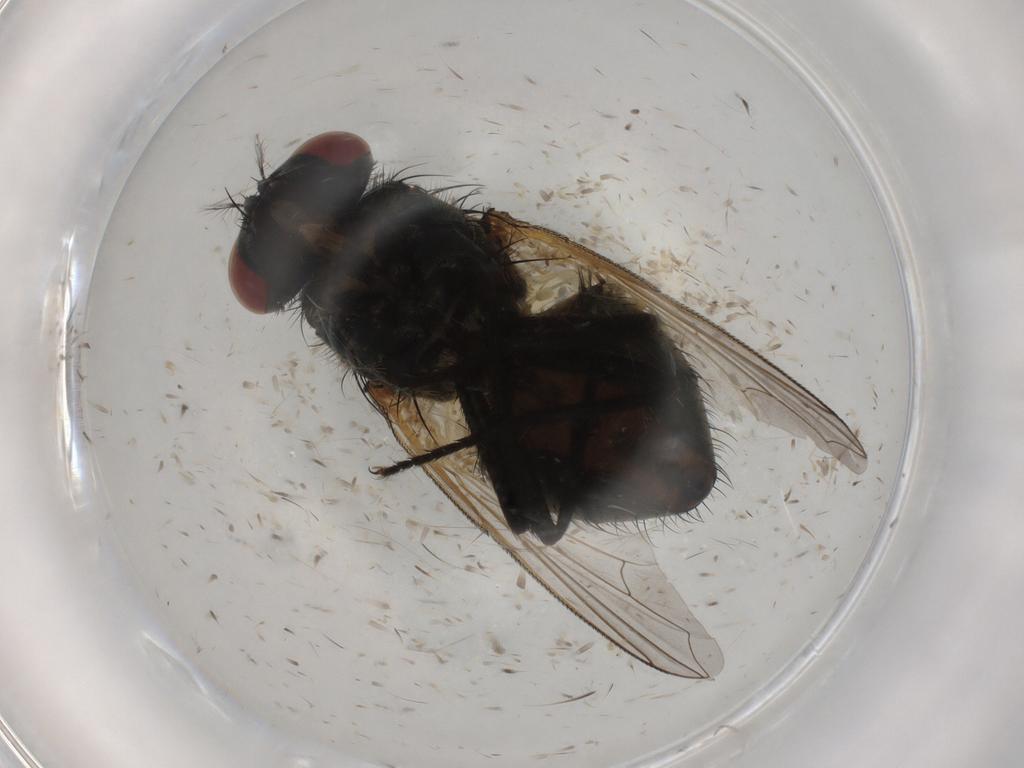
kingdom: Animalia
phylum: Arthropoda
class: Insecta
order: Diptera
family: Cecidomyiidae
